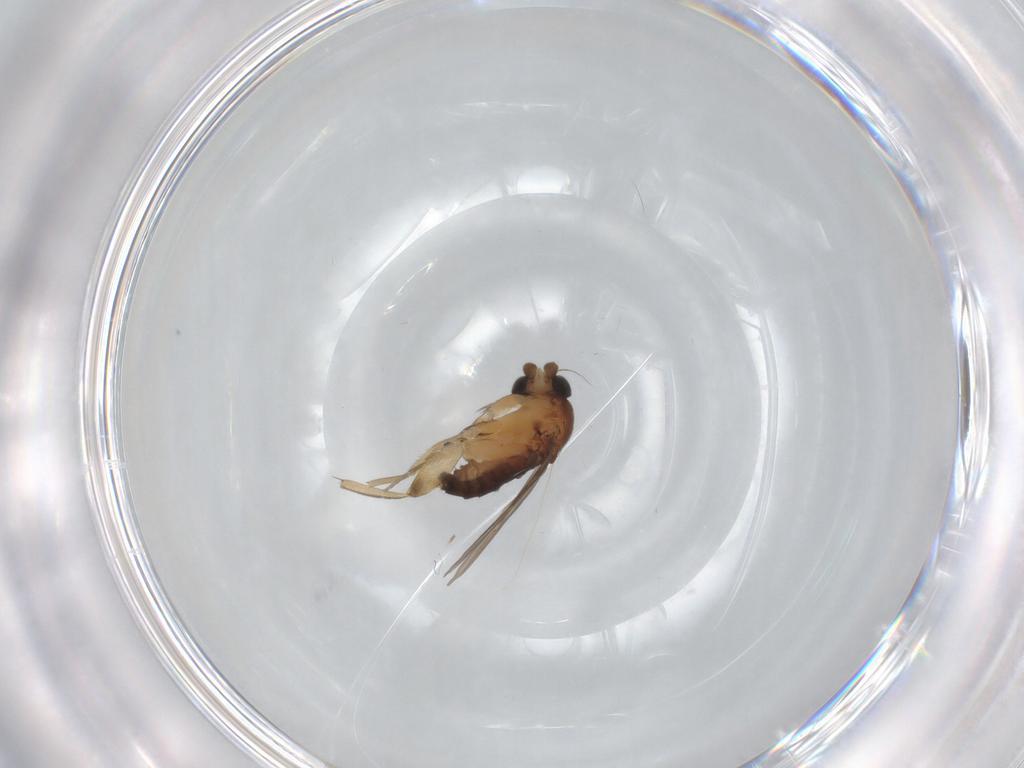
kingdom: Animalia
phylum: Arthropoda
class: Insecta
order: Diptera
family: Phoridae
